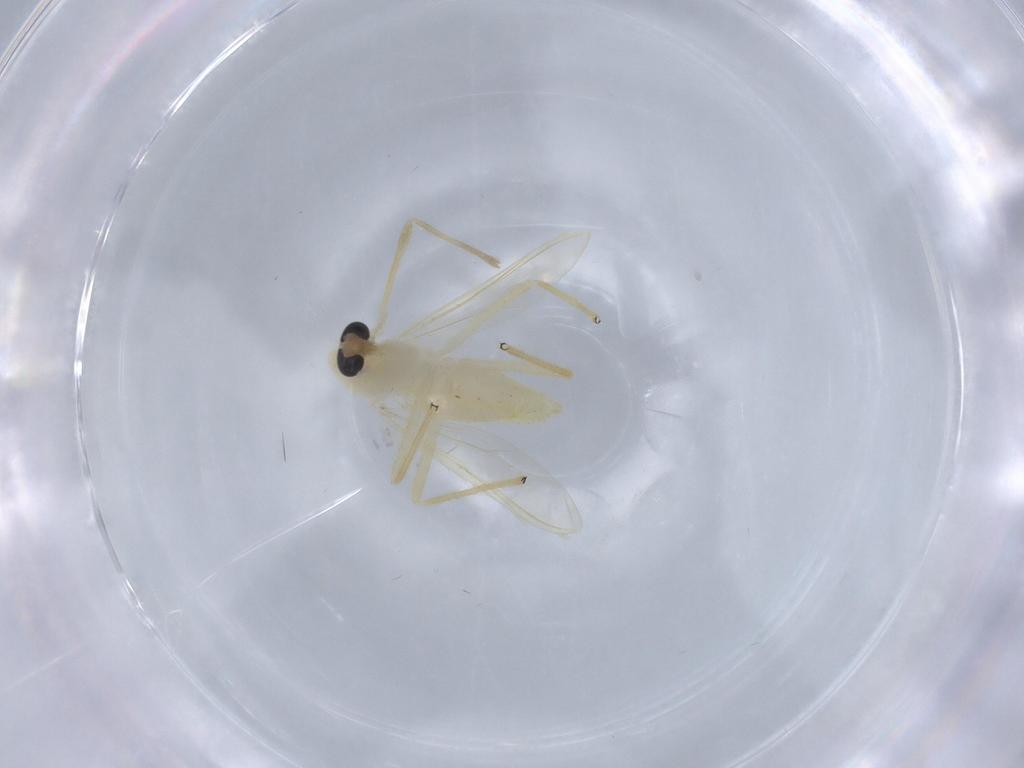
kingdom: Animalia
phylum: Arthropoda
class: Insecta
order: Diptera
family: Chironomidae
